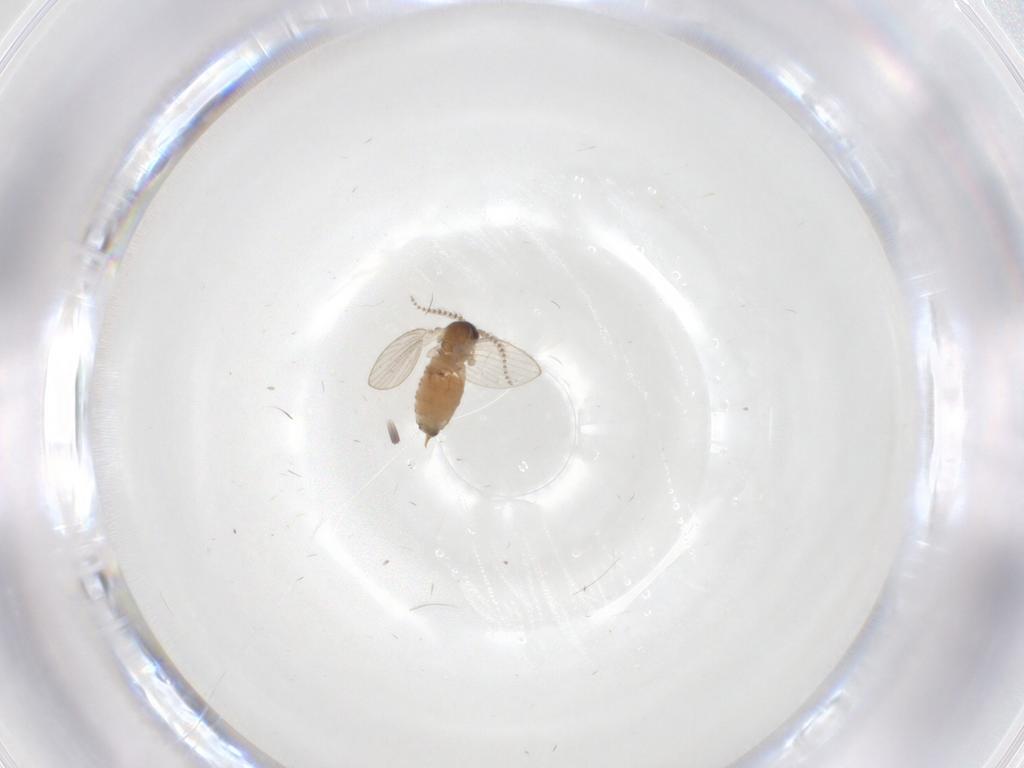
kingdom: Animalia
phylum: Arthropoda
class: Insecta
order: Diptera
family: Psychodidae
